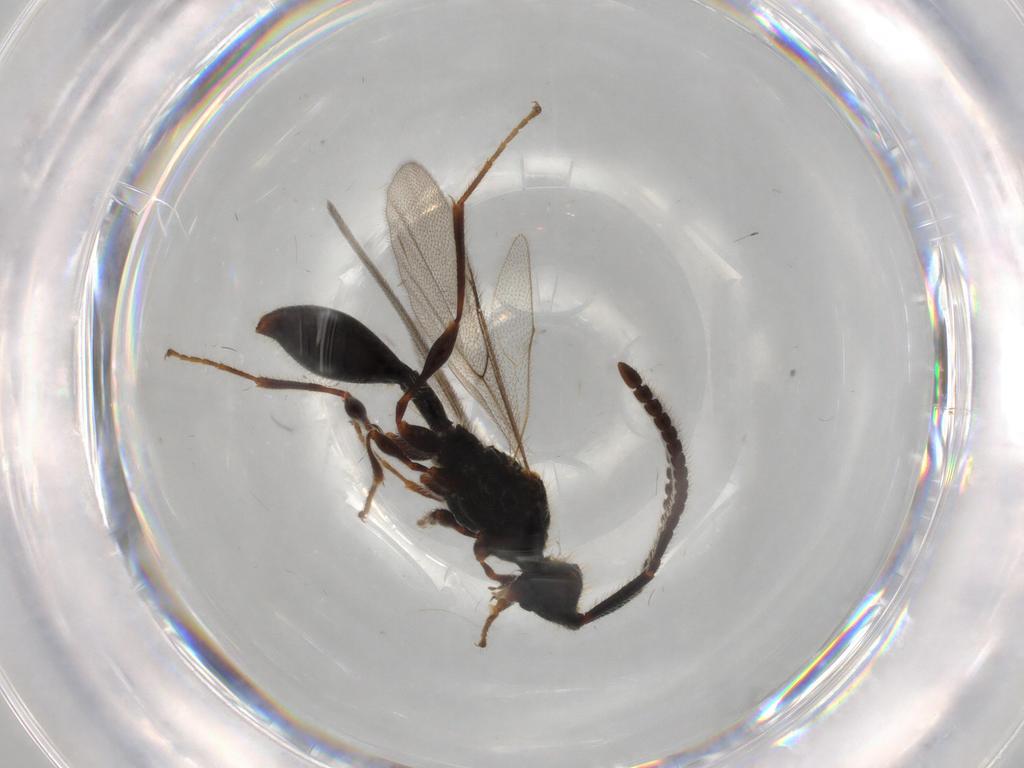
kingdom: Animalia
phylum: Arthropoda
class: Insecta
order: Hymenoptera
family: Diapriidae
